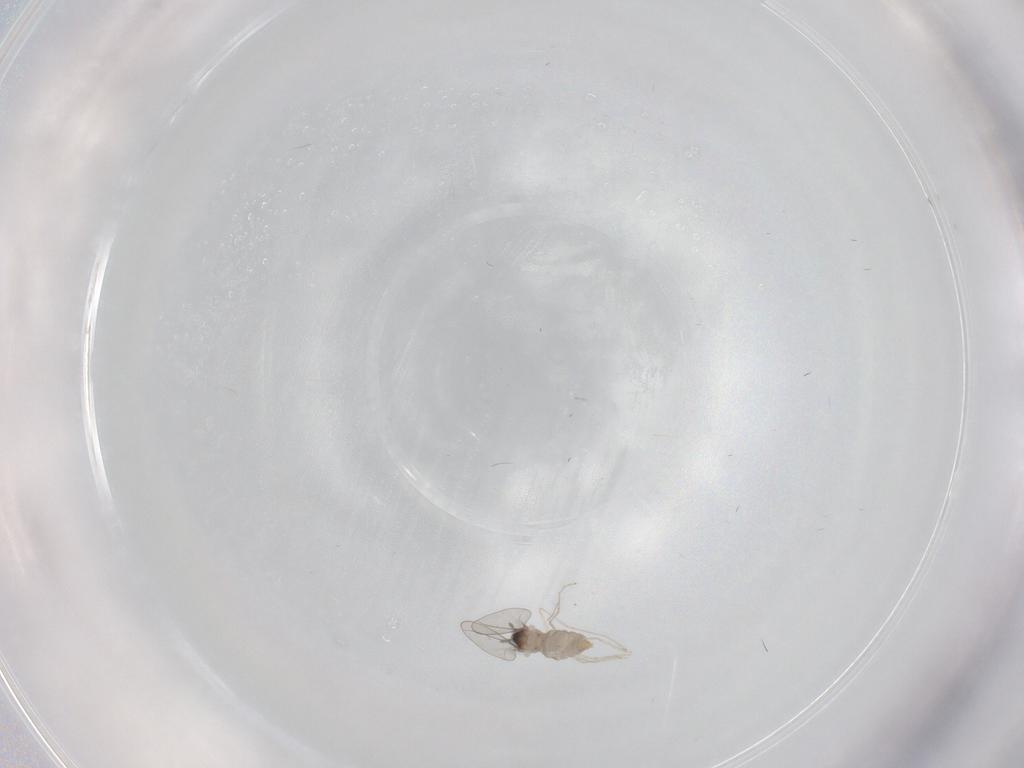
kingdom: Animalia
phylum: Arthropoda
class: Insecta
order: Diptera
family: Cecidomyiidae
